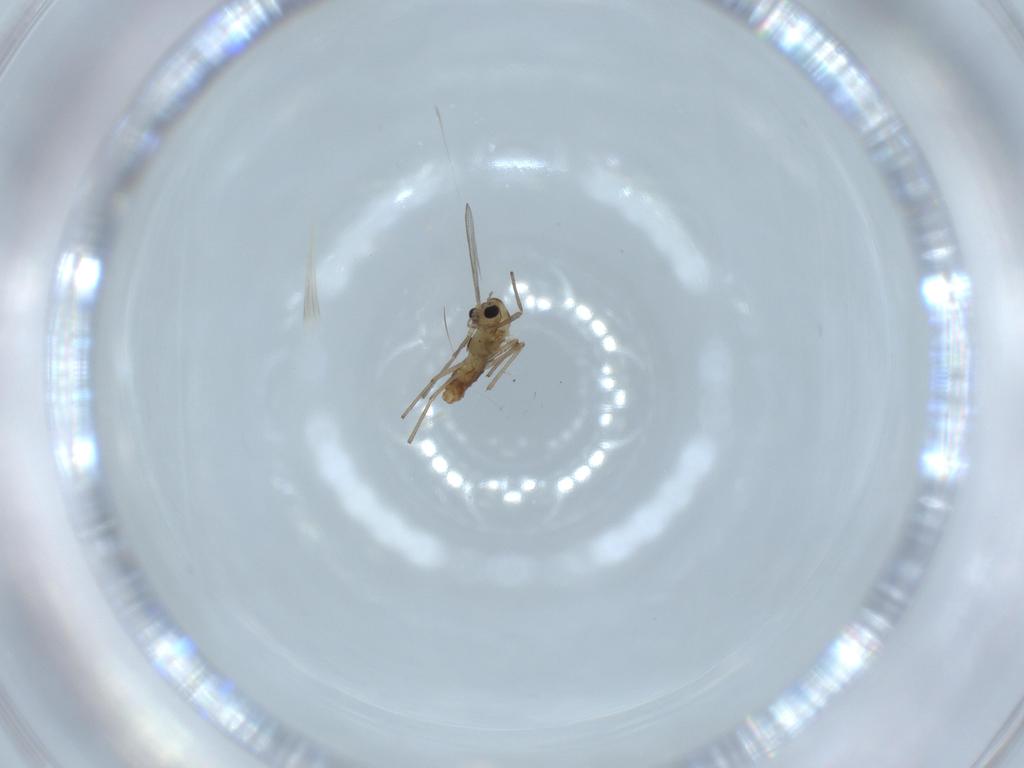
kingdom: Animalia
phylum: Arthropoda
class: Insecta
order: Diptera
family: Chironomidae
